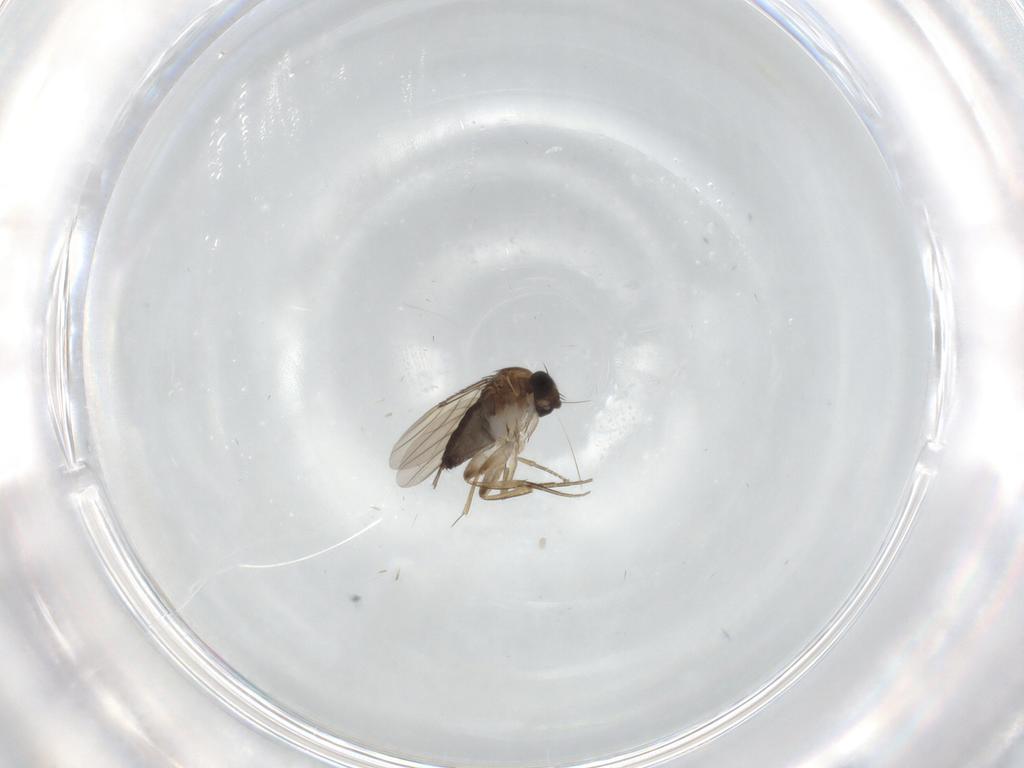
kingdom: Animalia
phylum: Arthropoda
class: Insecta
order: Diptera
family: Phoridae
